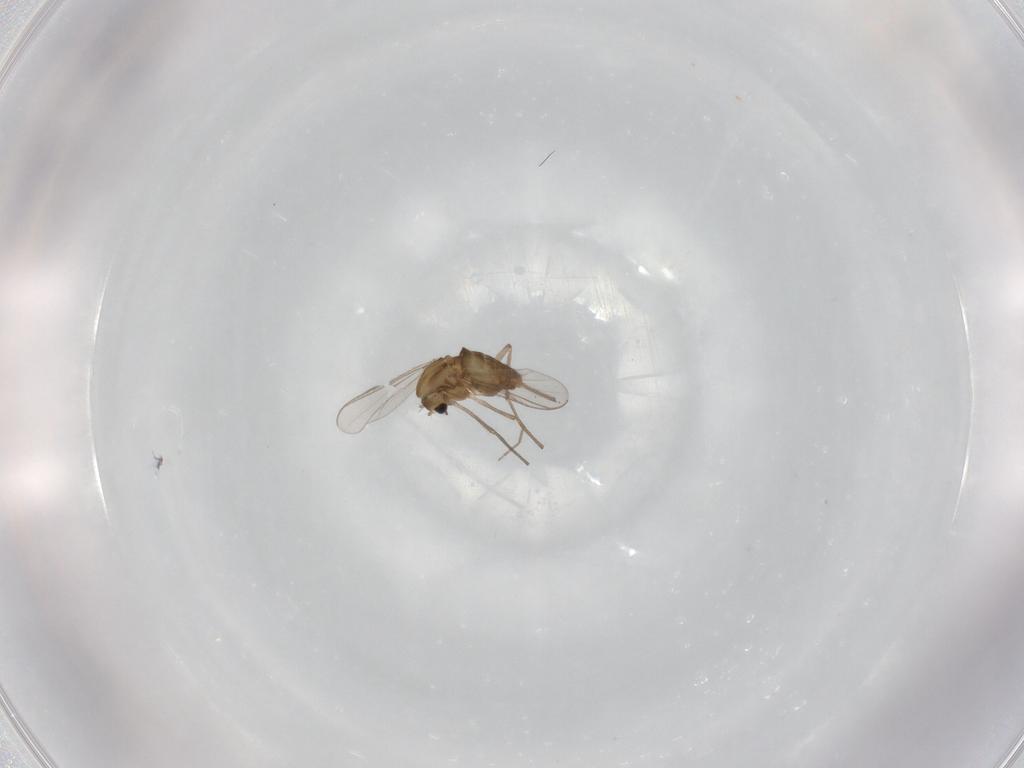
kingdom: Animalia
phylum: Arthropoda
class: Insecta
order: Diptera
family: Chironomidae
